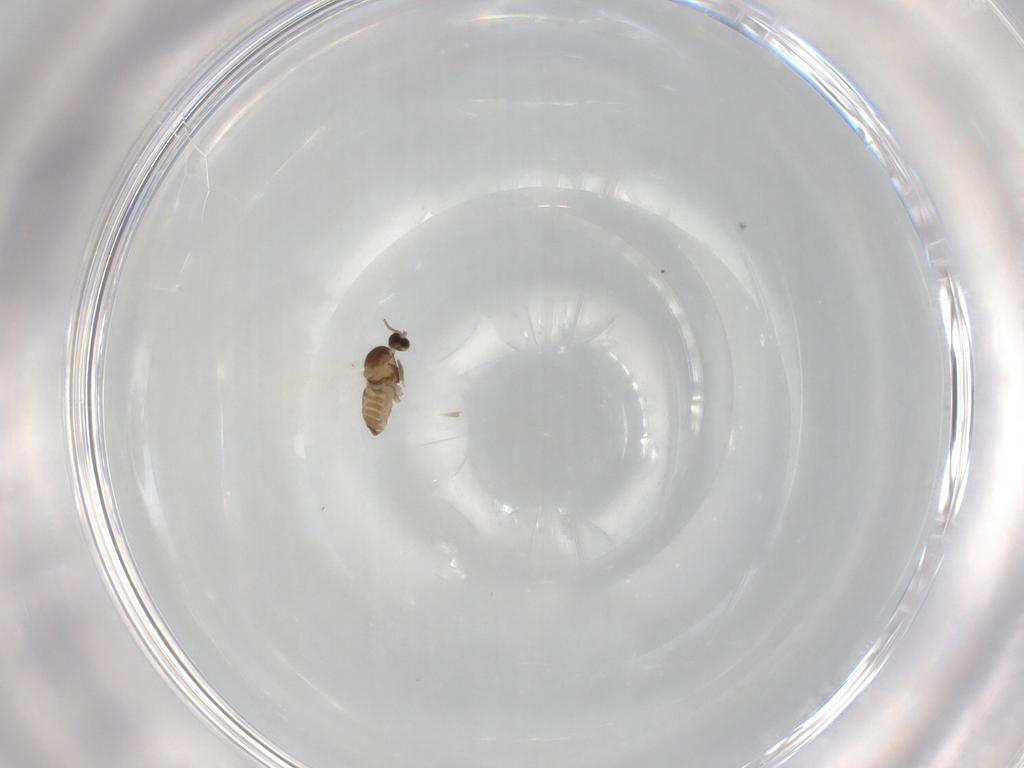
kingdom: Animalia
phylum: Arthropoda
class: Insecta
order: Diptera
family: Cecidomyiidae
